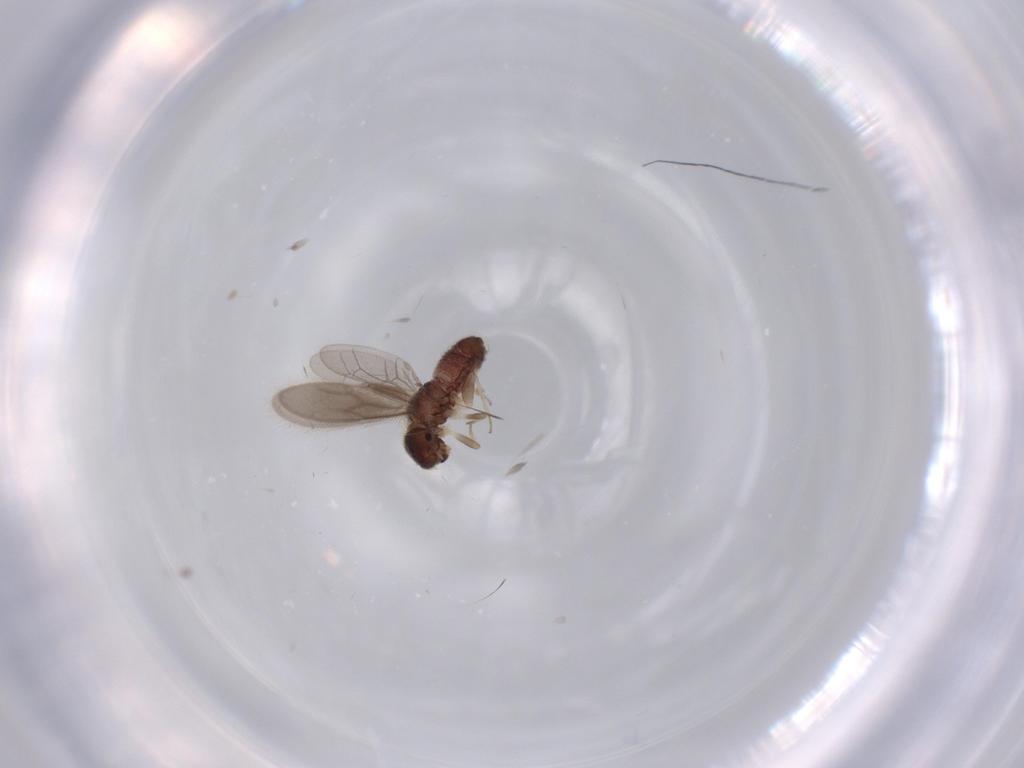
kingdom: Animalia
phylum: Arthropoda
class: Insecta
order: Psocodea
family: Archipsocidae
